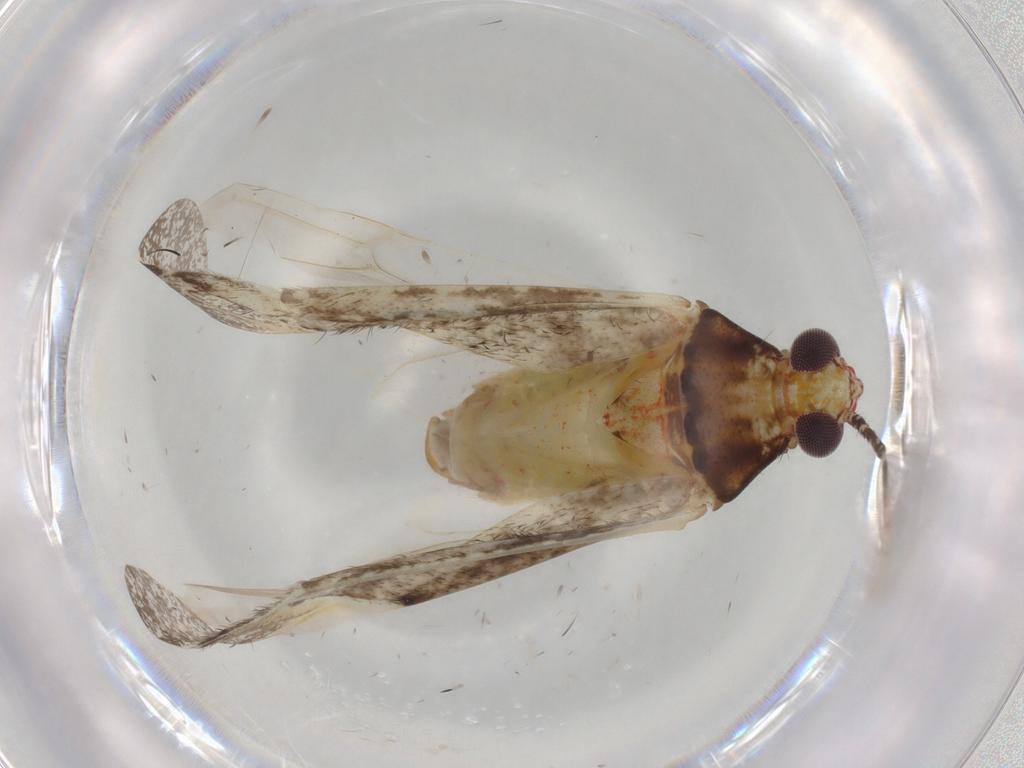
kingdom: Animalia
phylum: Arthropoda
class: Insecta
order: Hemiptera
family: Miridae
